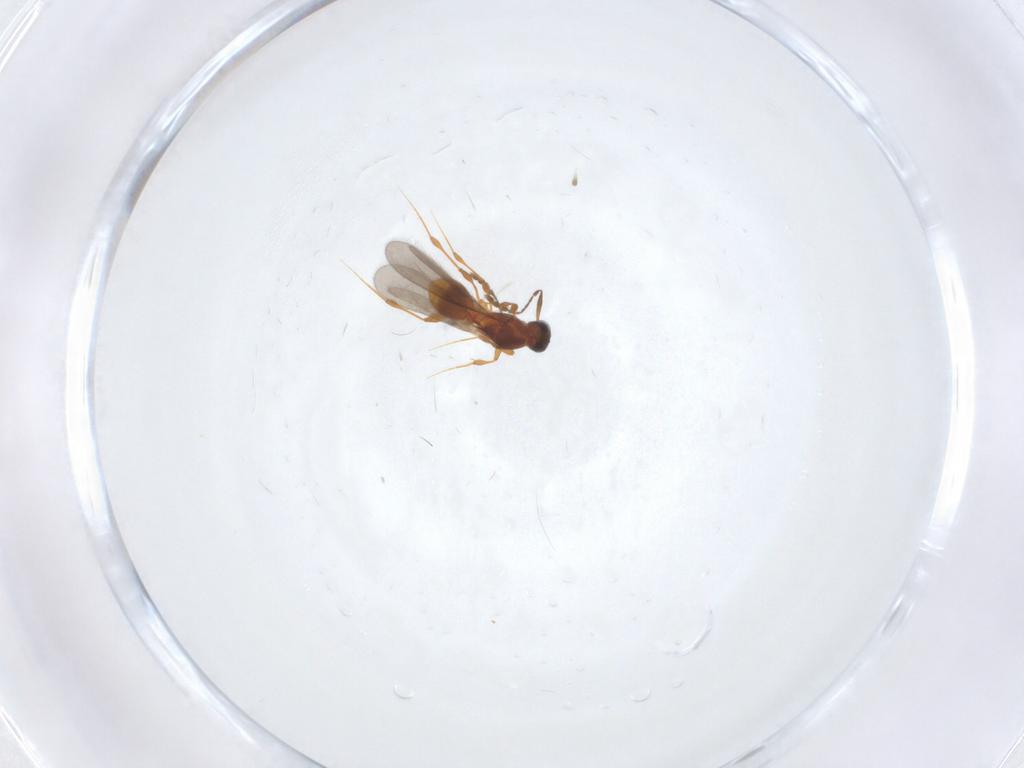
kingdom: Animalia
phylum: Arthropoda
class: Insecta
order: Hymenoptera
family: Platygastridae
